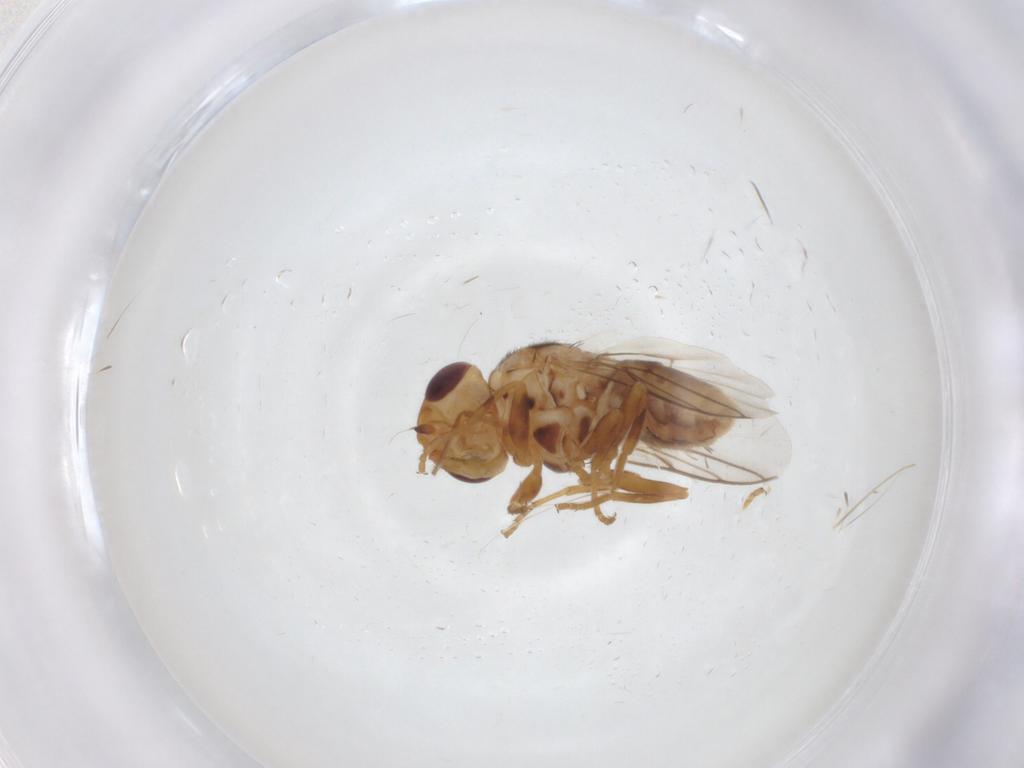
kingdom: Animalia
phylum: Arthropoda
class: Insecta
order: Diptera
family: Chloropidae
